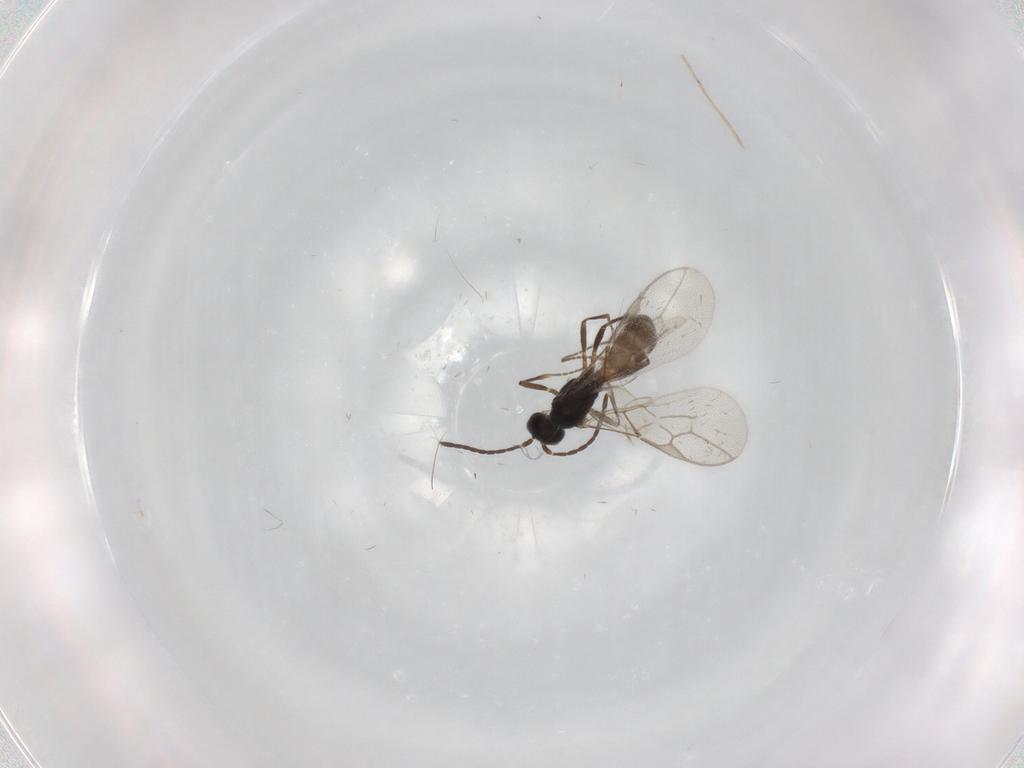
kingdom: Animalia
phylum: Arthropoda
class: Insecta
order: Hymenoptera
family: Braconidae
